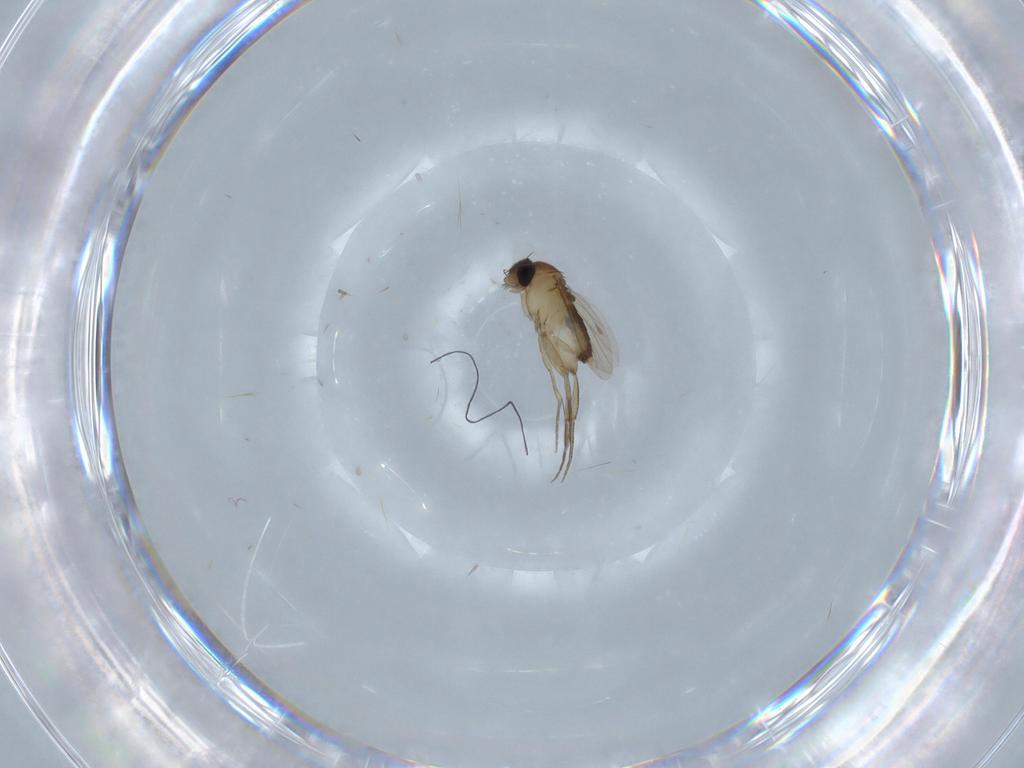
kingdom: Animalia
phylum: Arthropoda
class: Insecta
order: Diptera
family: Phoridae
